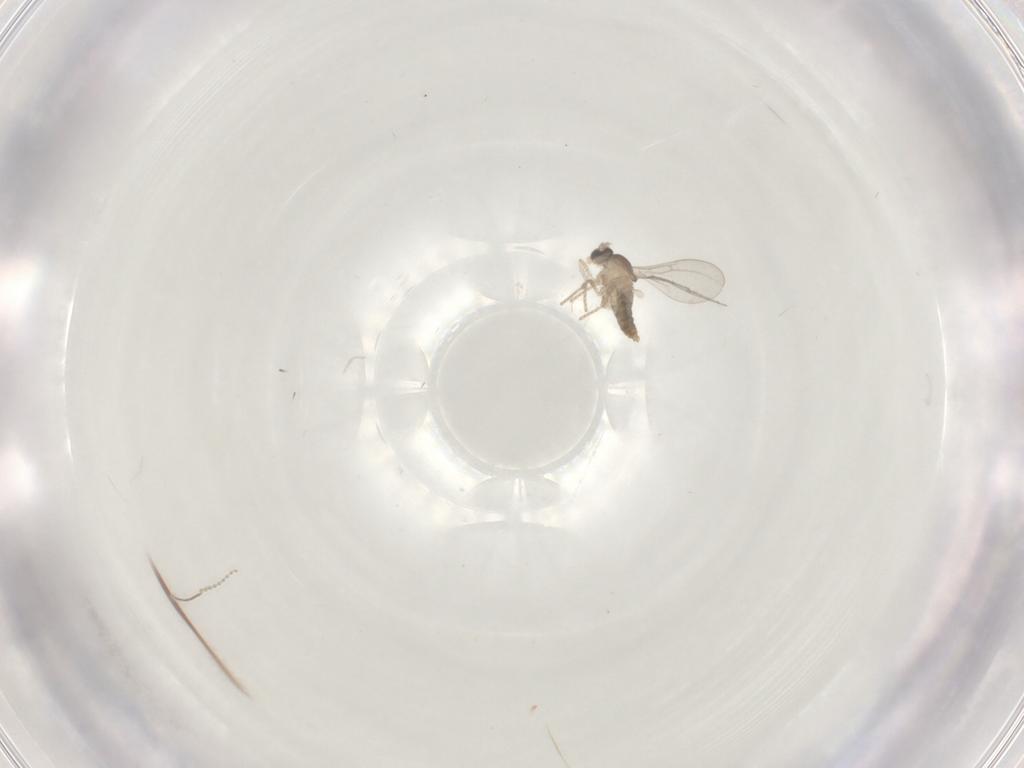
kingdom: Animalia
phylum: Arthropoda
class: Insecta
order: Diptera
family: Cecidomyiidae
